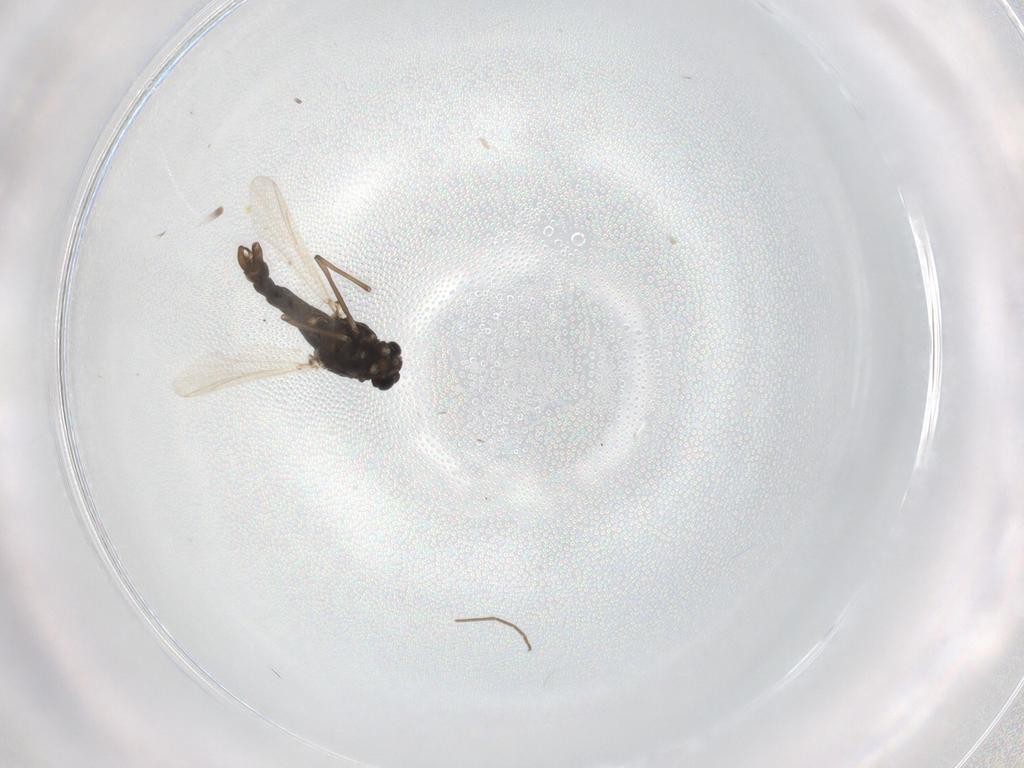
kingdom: Animalia
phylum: Arthropoda
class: Insecta
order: Diptera
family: Chironomidae
